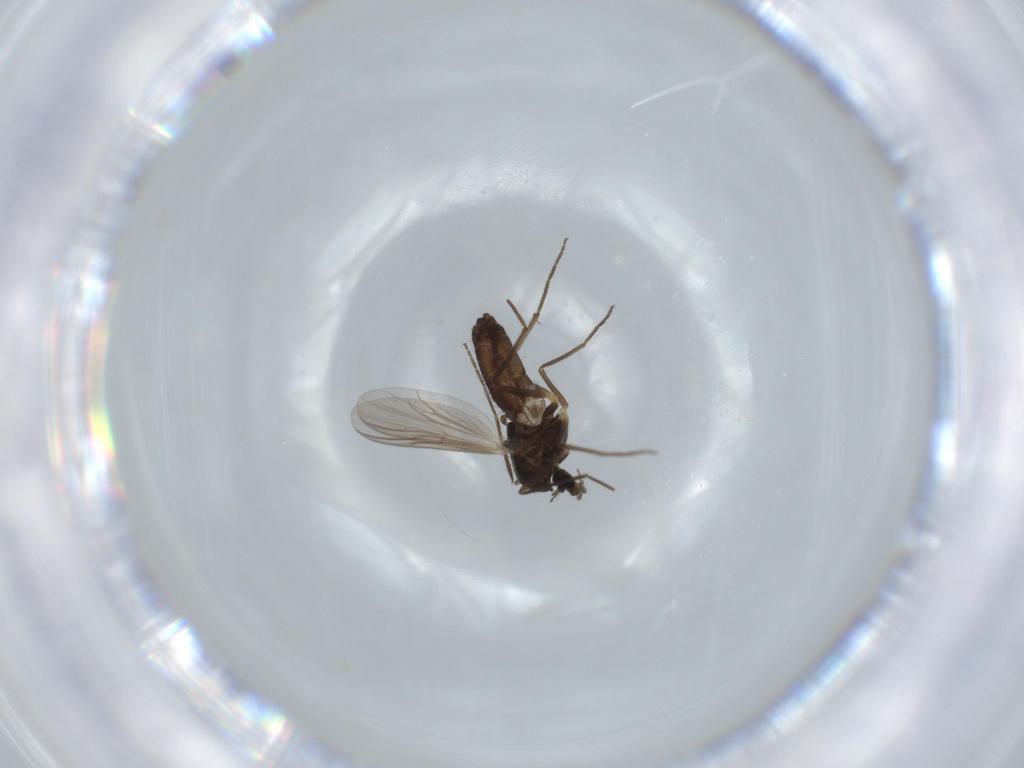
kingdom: Animalia
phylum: Arthropoda
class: Insecta
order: Diptera
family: Chironomidae
